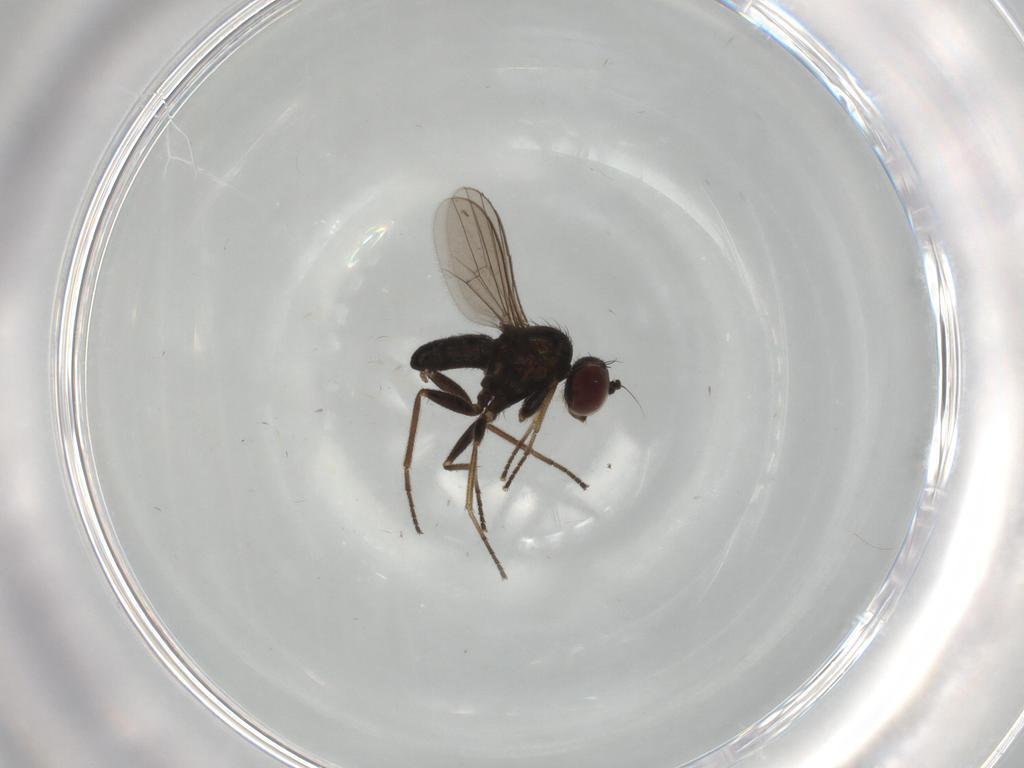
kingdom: Animalia
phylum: Arthropoda
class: Insecta
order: Diptera
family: Dolichopodidae
